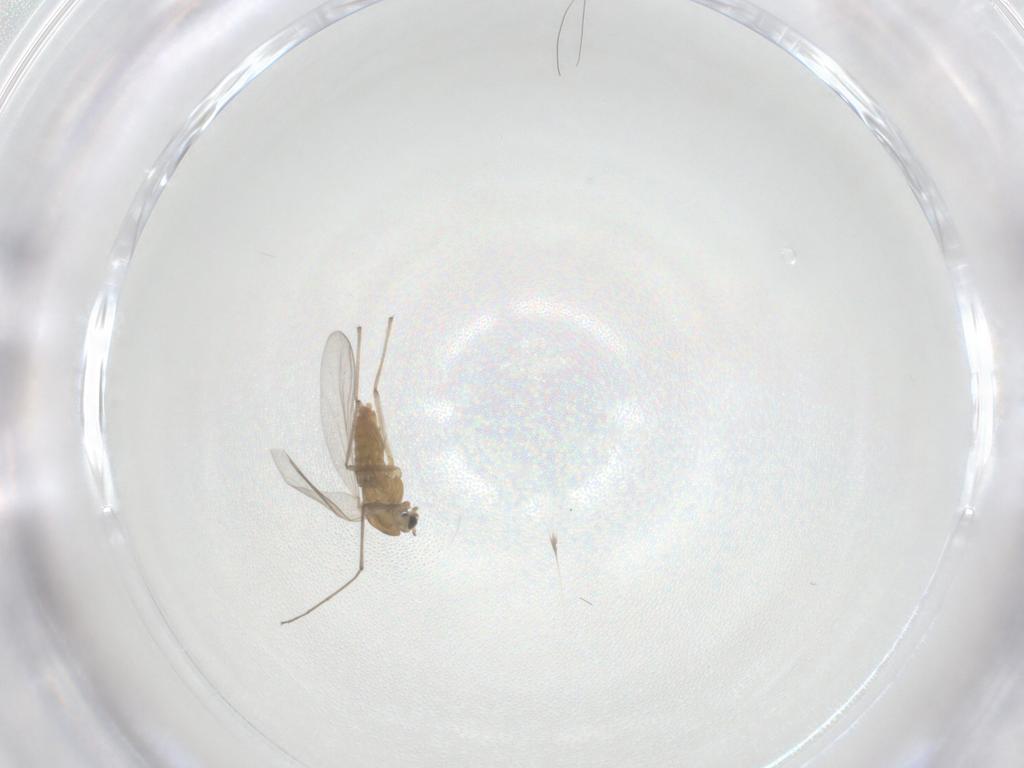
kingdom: Animalia
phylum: Arthropoda
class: Insecta
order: Diptera
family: Chironomidae
